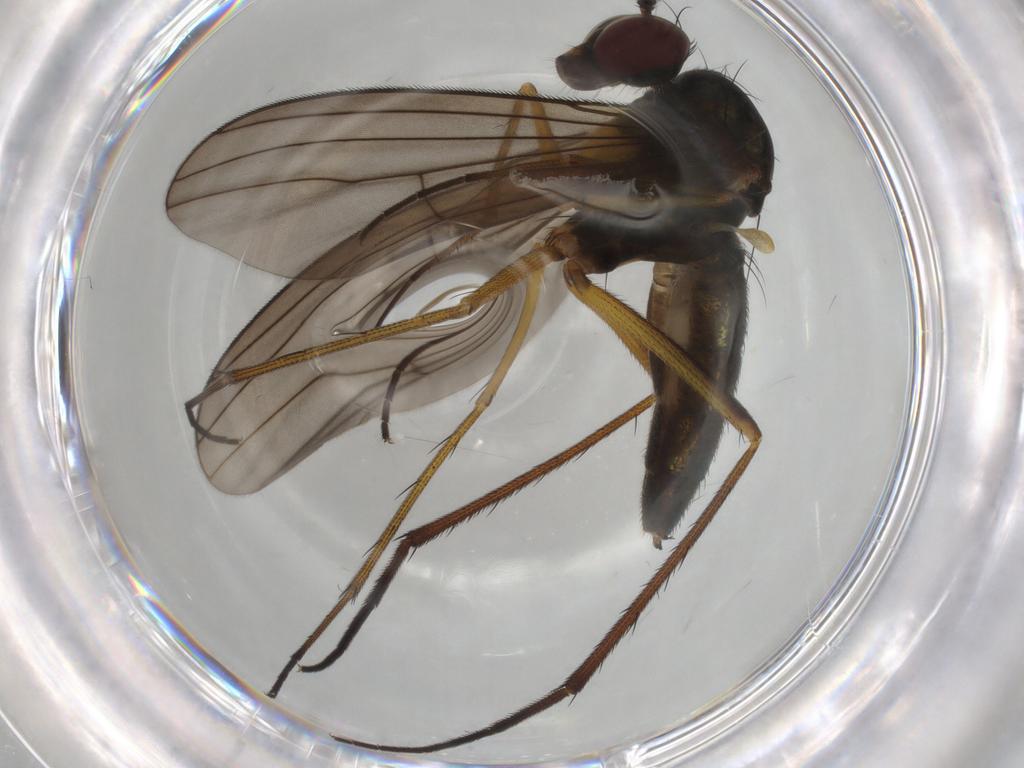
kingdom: Animalia
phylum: Arthropoda
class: Insecta
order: Diptera
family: Dolichopodidae
